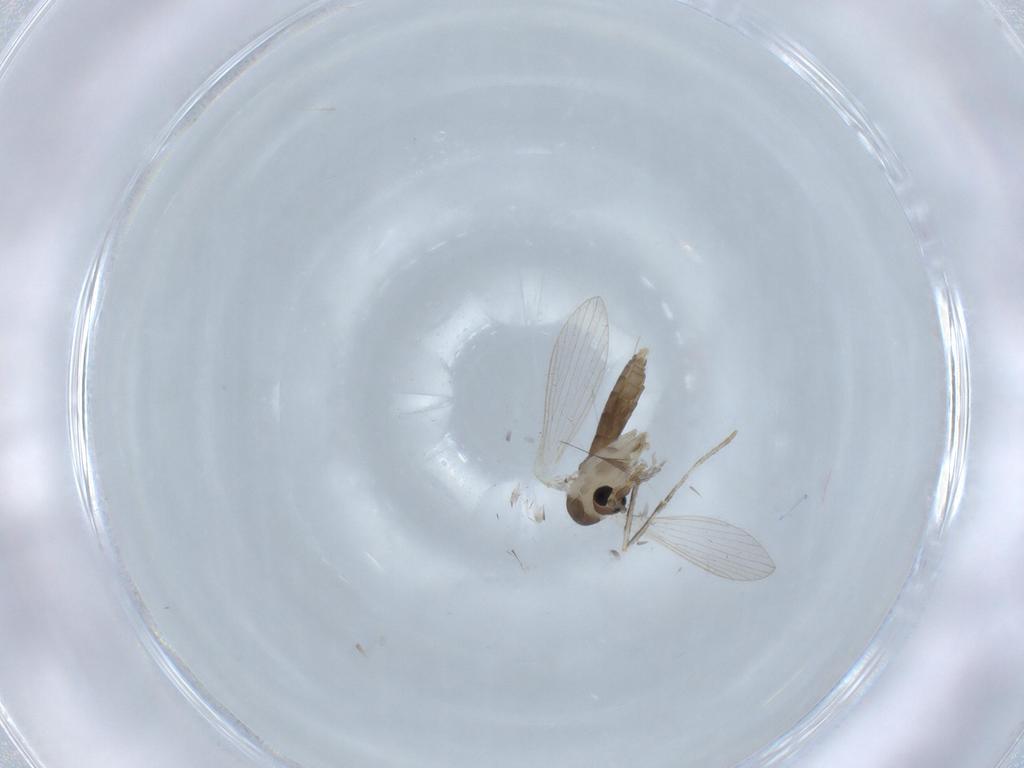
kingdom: Animalia
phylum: Arthropoda
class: Insecta
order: Diptera
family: Psychodidae
